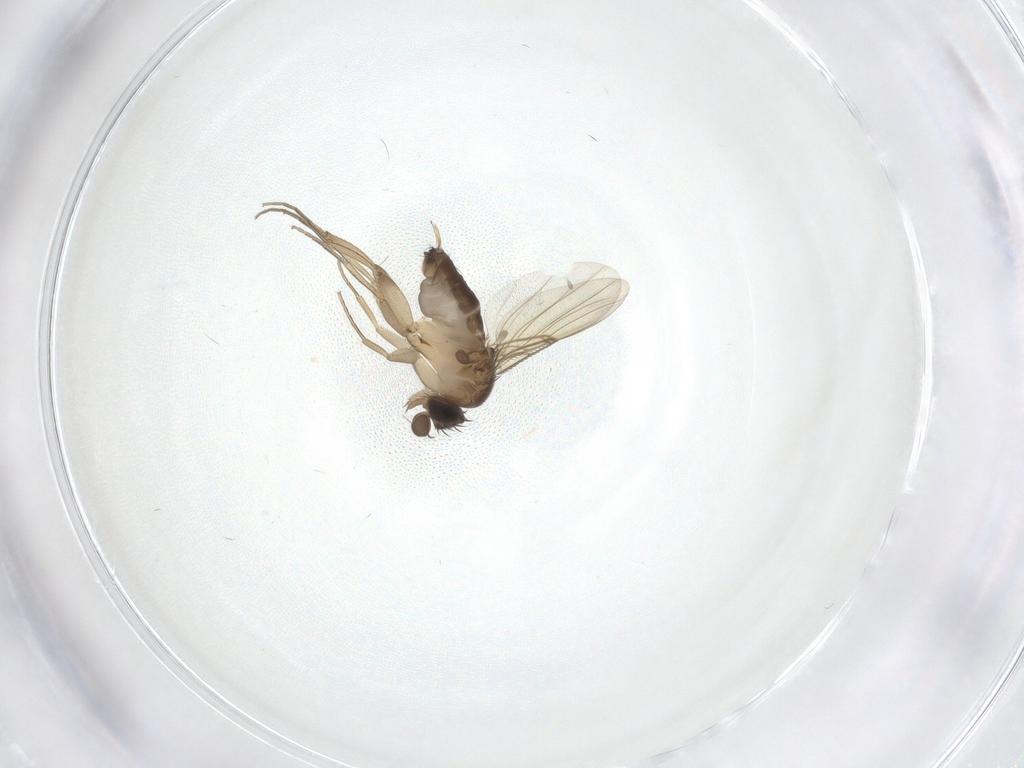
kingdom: Animalia
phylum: Arthropoda
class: Insecta
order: Diptera
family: Phoridae
